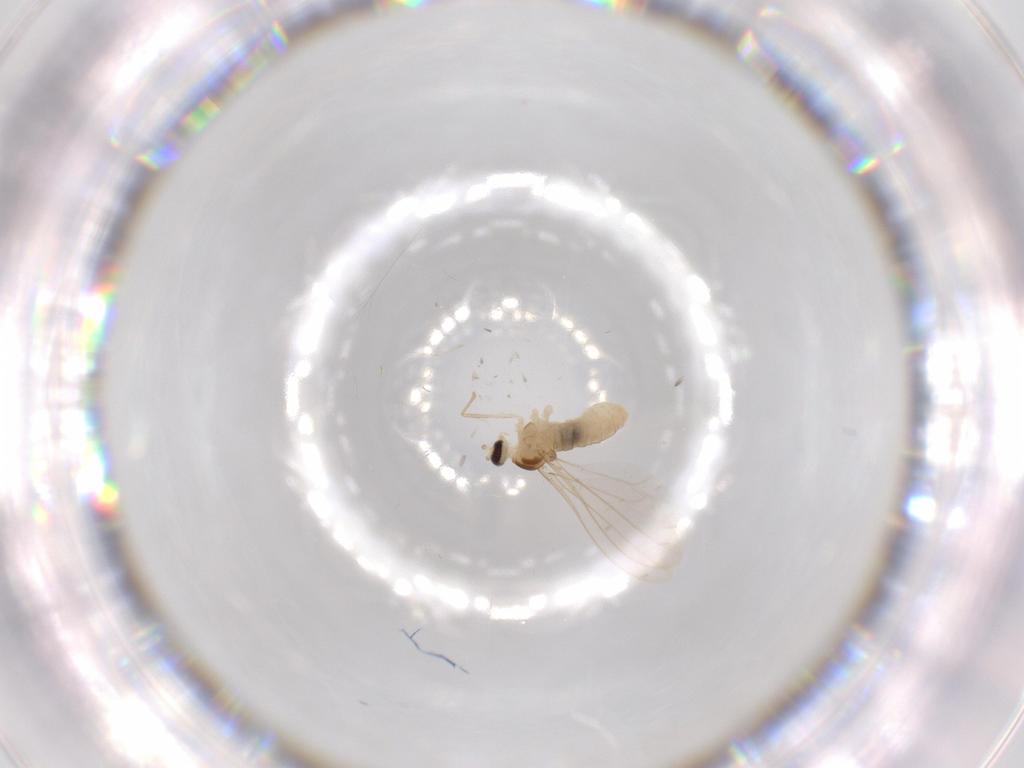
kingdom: Animalia
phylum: Arthropoda
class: Insecta
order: Diptera
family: Cecidomyiidae
